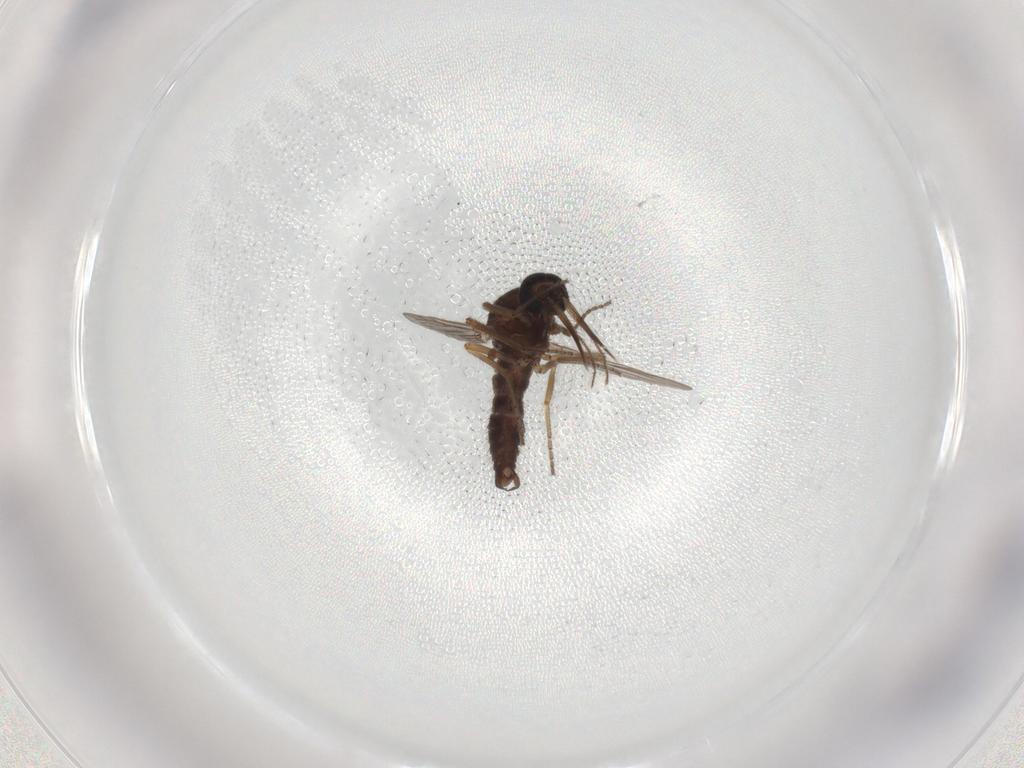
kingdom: Animalia
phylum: Arthropoda
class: Insecta
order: Diptera
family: Ceratopogonidae
